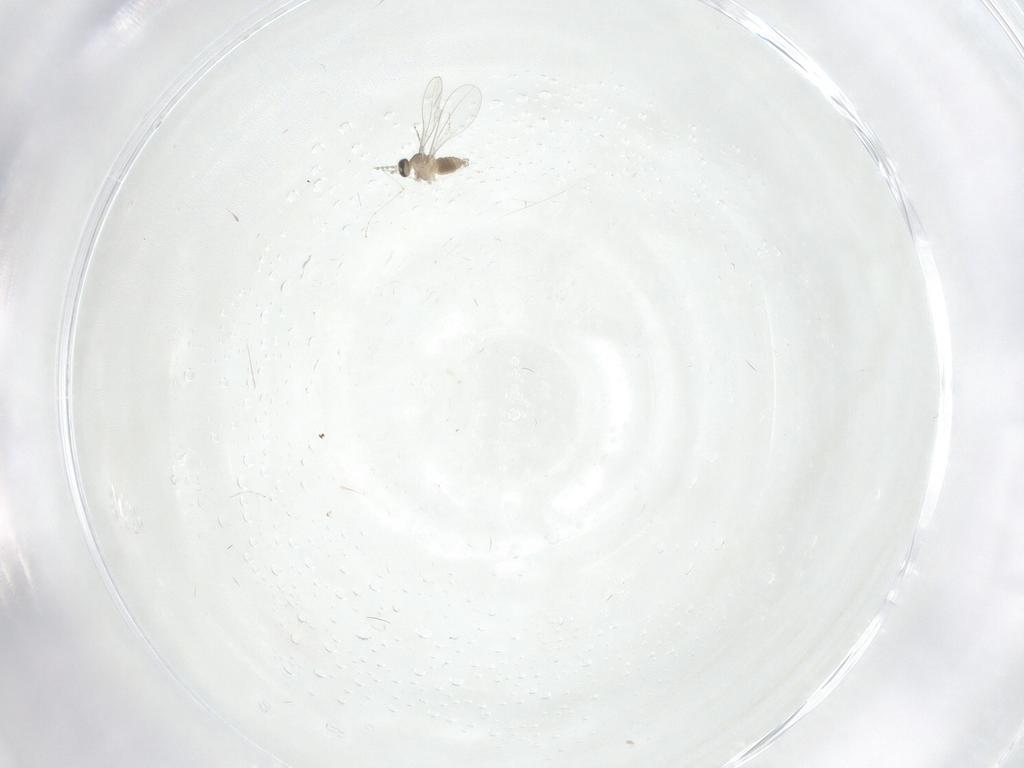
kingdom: Animalia
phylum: Arthropoda
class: Insecta
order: Diptera
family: Cecidomyiidae
